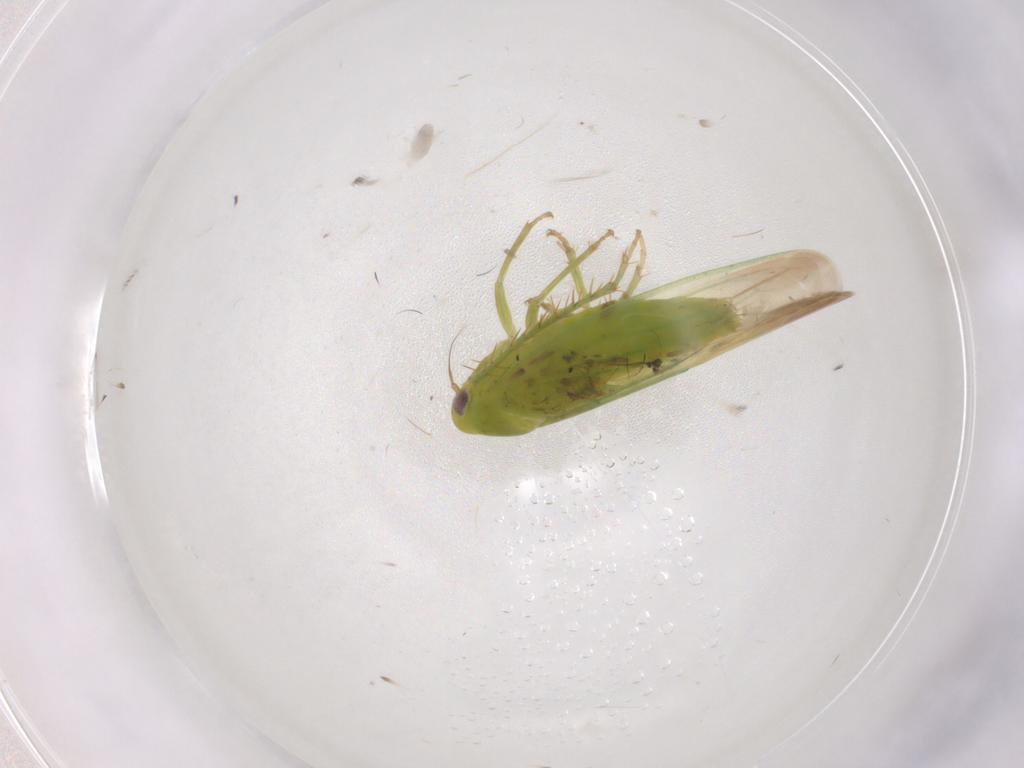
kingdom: Animalia
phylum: Arthropoda
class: Insecta
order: Hemiptera
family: Cicadellidae
